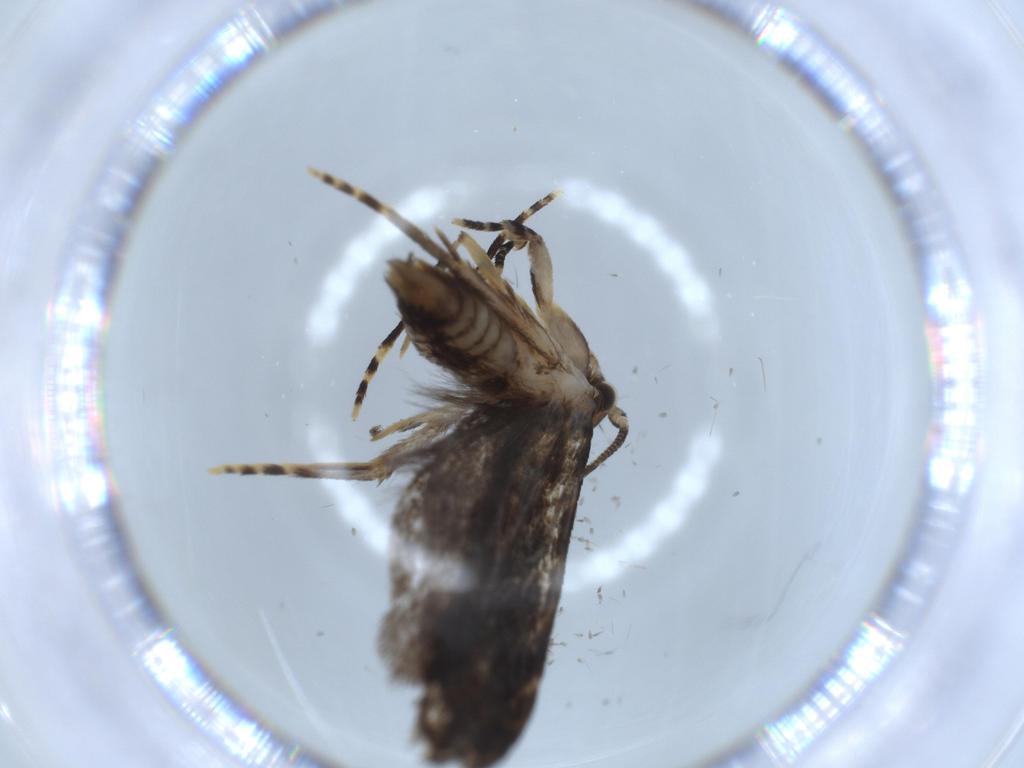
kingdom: Animalia
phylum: Arthropoda
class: Insecta
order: Lepidoptera
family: Tineidae
